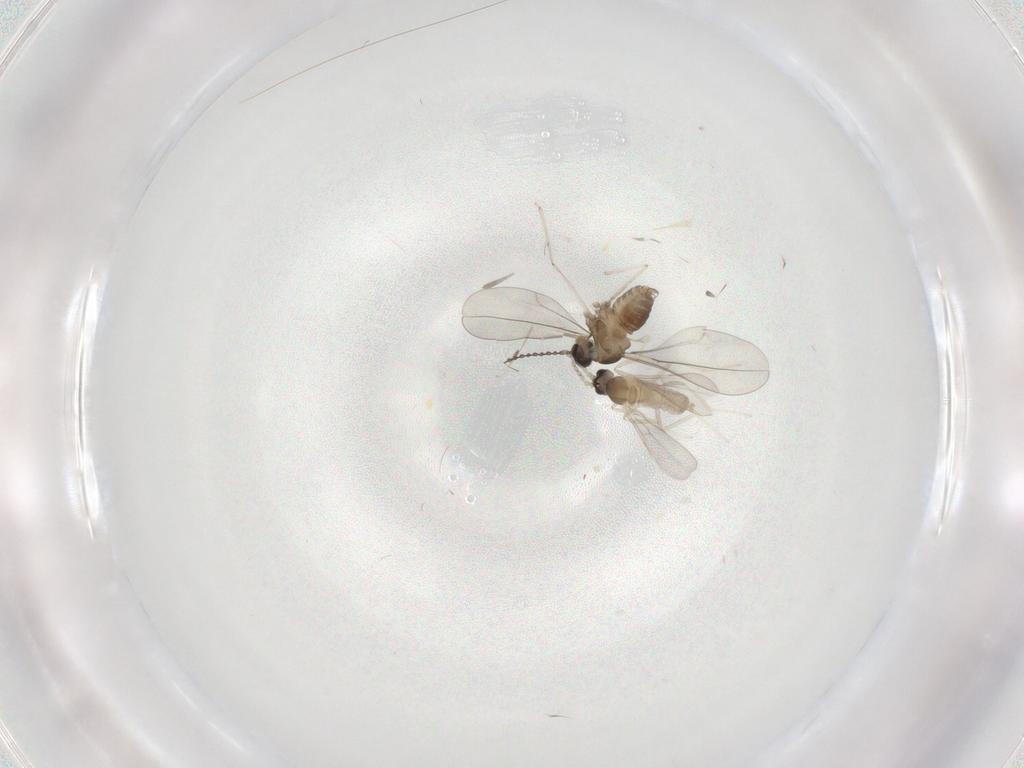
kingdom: Animalia
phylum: Arthropoda
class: Insecta
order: Diptera
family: Cecidomyiidae
